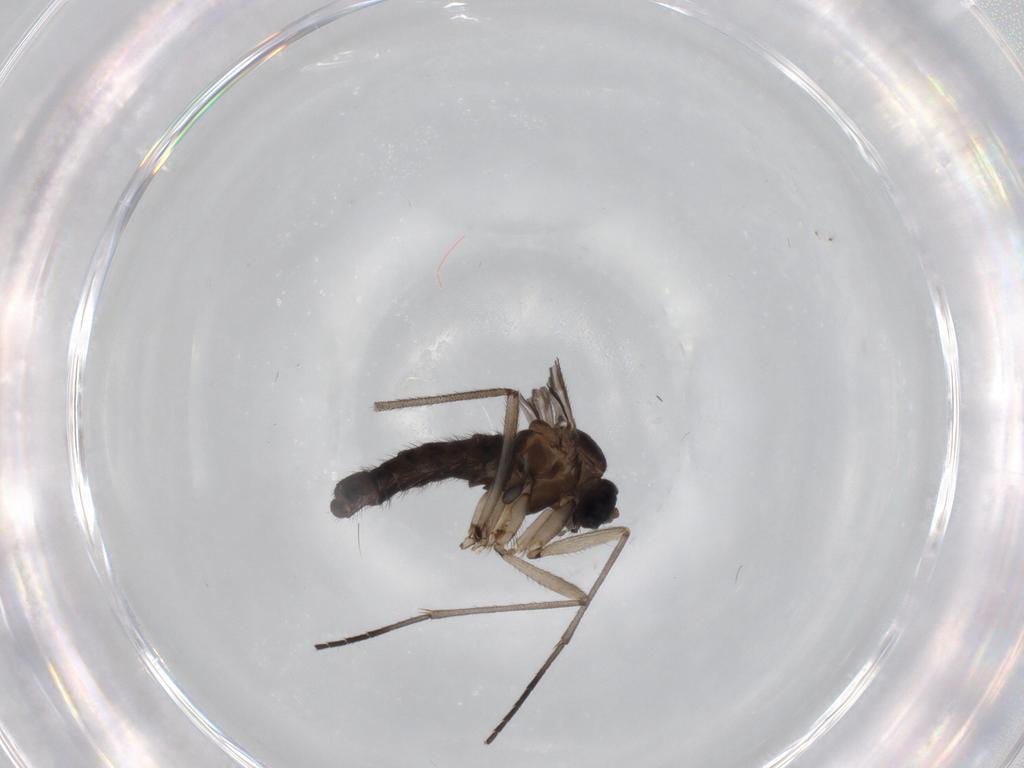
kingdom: Animalia
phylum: Arthropoda
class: Insecta
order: Diptera
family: Sciaridae
